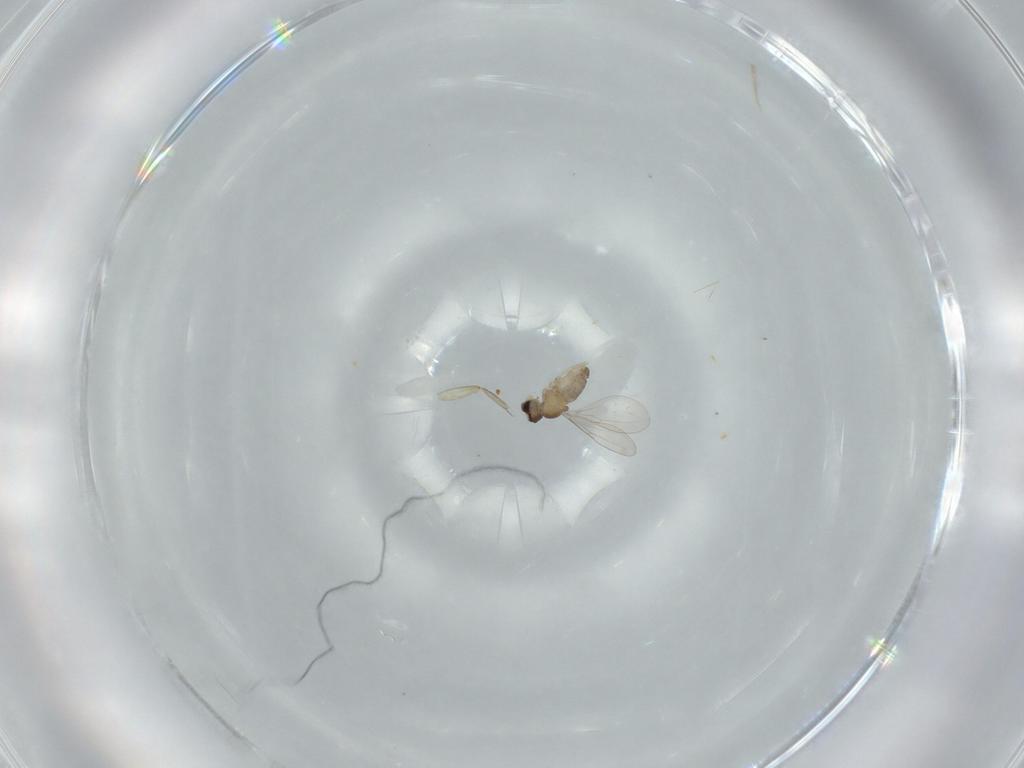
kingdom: Animalia
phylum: Arthropoda
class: Insecta
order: Diptera
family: Cecidomyiidae
